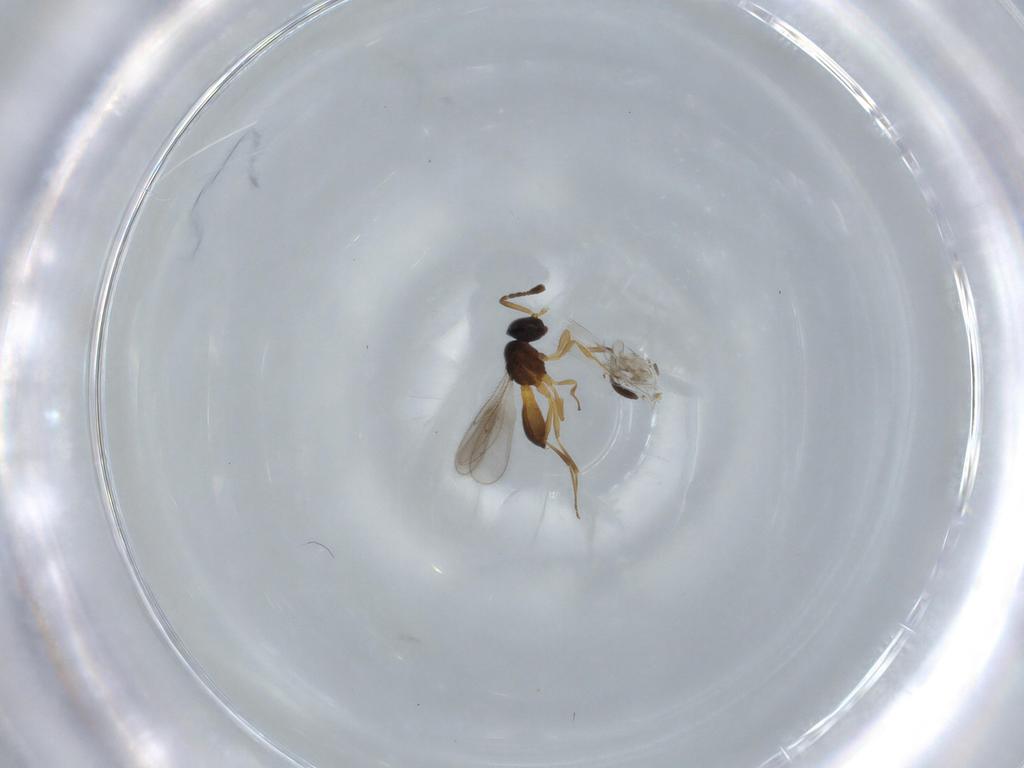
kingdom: Animalia
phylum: Arthropoda
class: Insecta
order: Hymenoptera
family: Scelionidae
